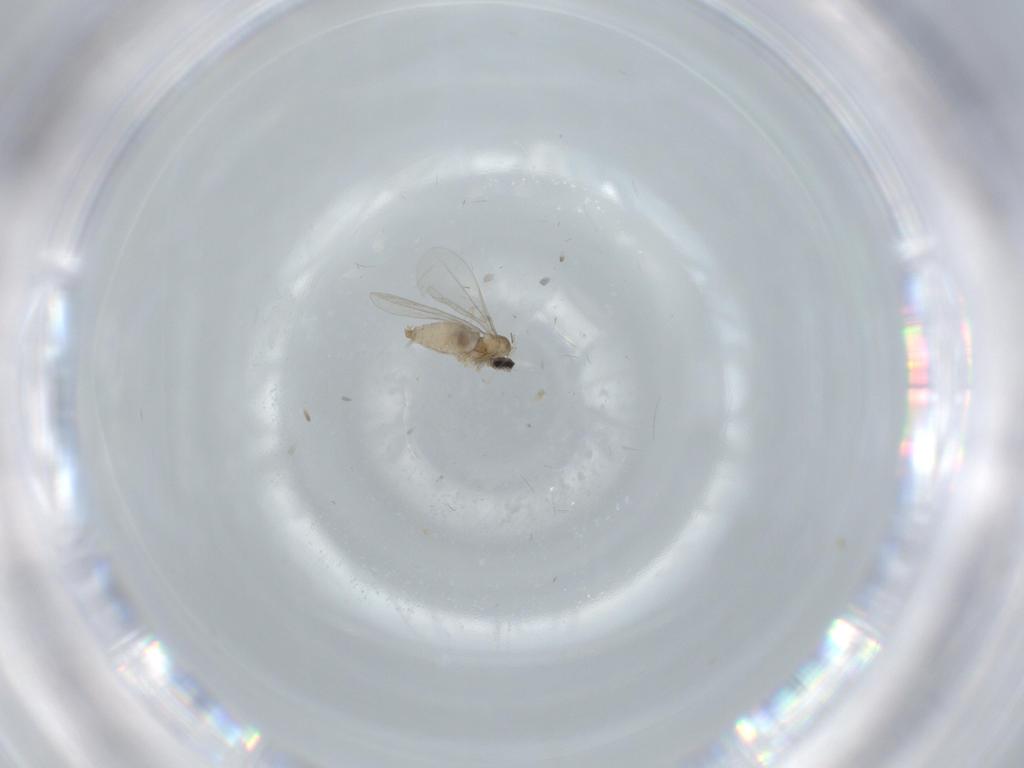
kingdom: Animalia
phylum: Arthropoda
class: Insecta
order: Diptera
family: Cecidomyiidae
